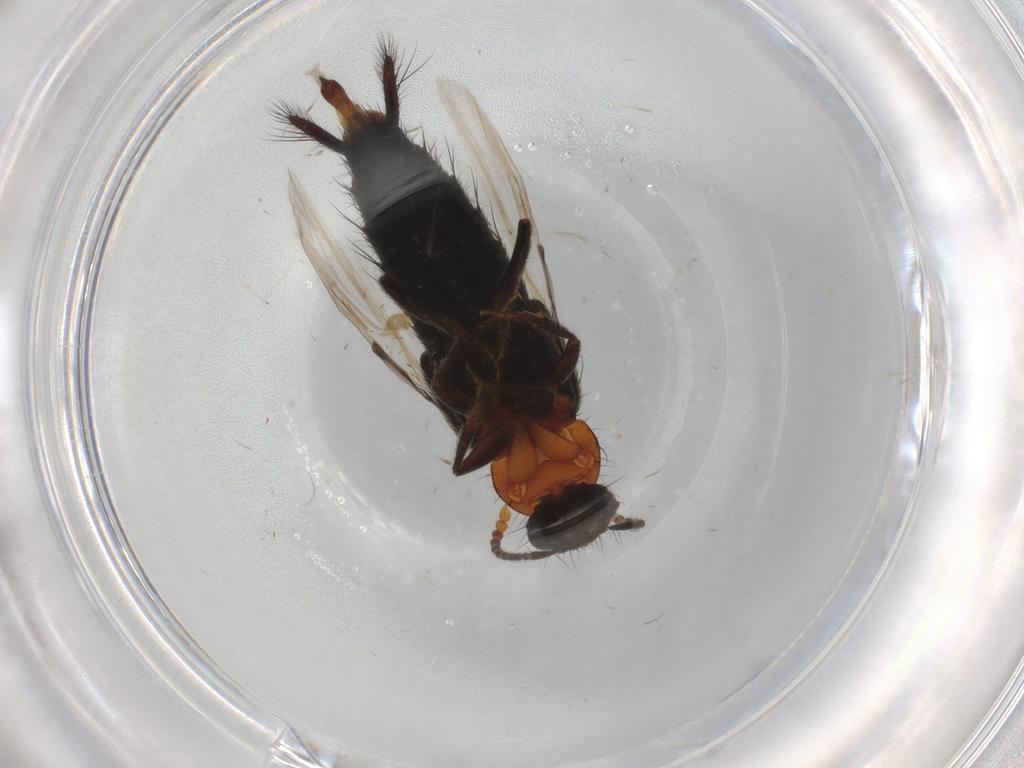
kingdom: Animalia
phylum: Arthropoda
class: Insecta
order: Coleoptera
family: Staphylinidae
